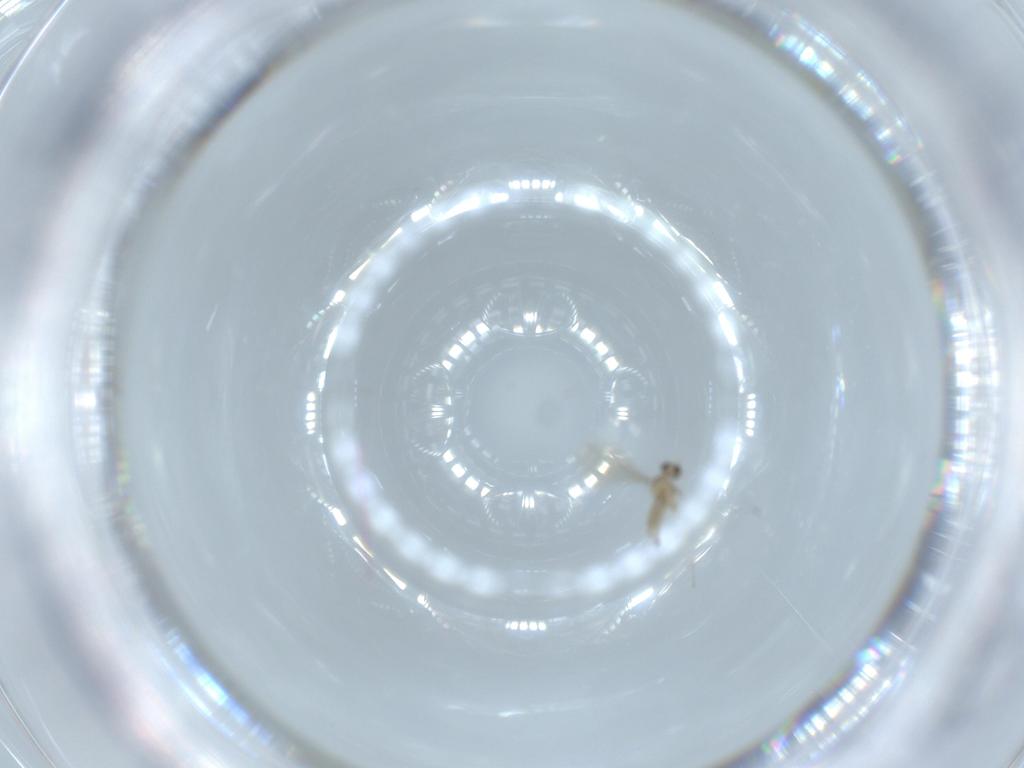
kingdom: Animalia
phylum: Arthropoda
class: Insecta
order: Diptera
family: Cecidomyiidae
